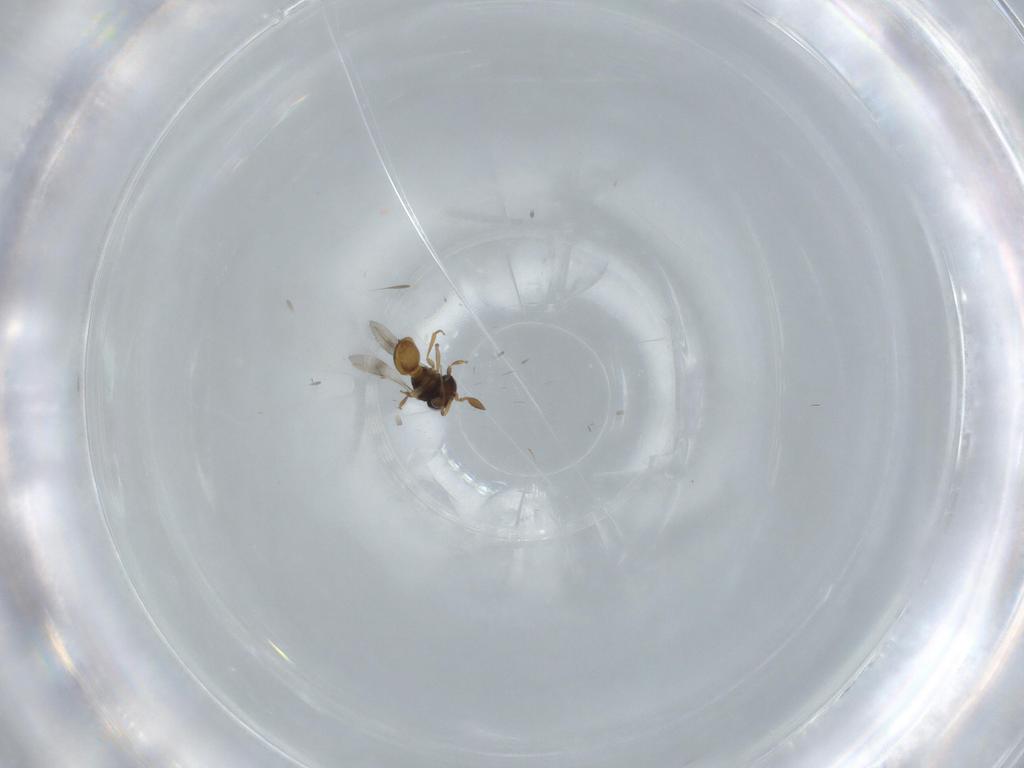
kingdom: Animalia
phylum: Arthropoda
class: Insecta
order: Hymenoptera
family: Scelionidae
